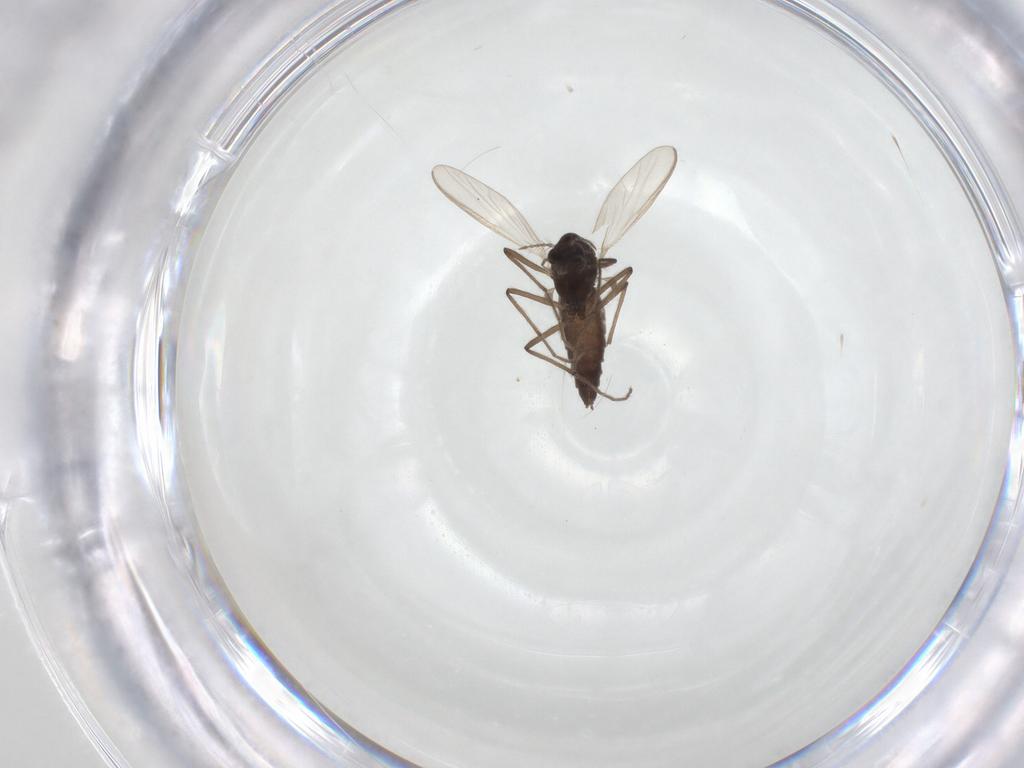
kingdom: Animalia
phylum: Arthropoda
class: Insecta
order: Diptera
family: Chironomidae
